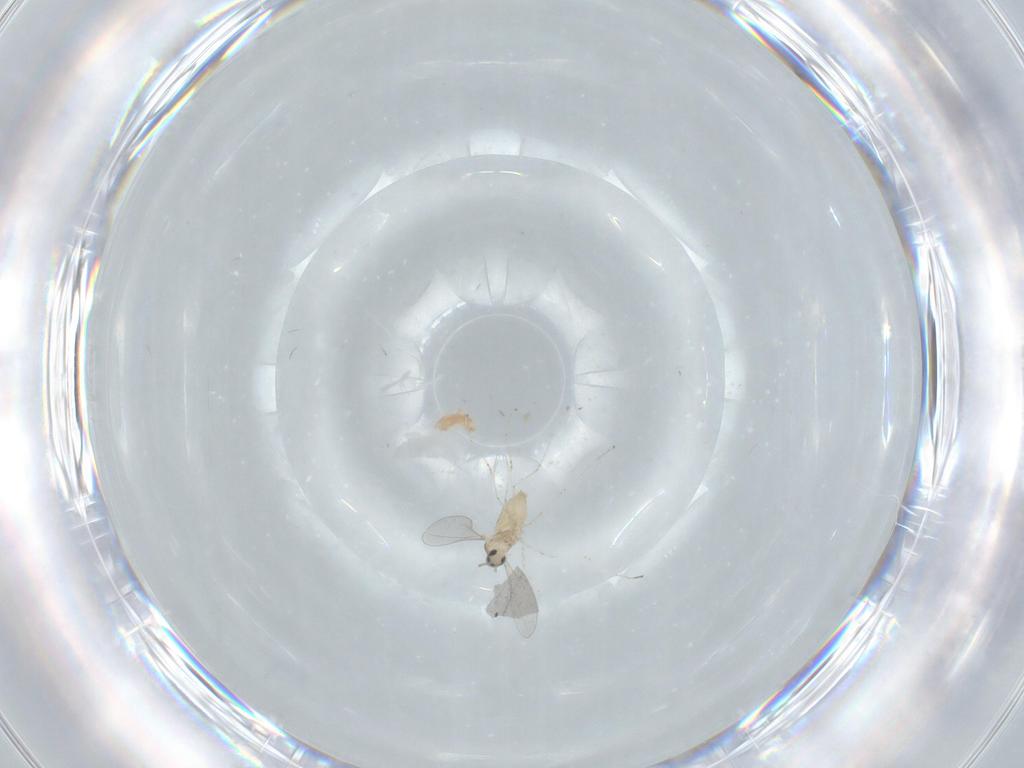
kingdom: Animalia
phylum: Arthropoda
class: Insecta
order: Diptera
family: Cecidomyiidae
